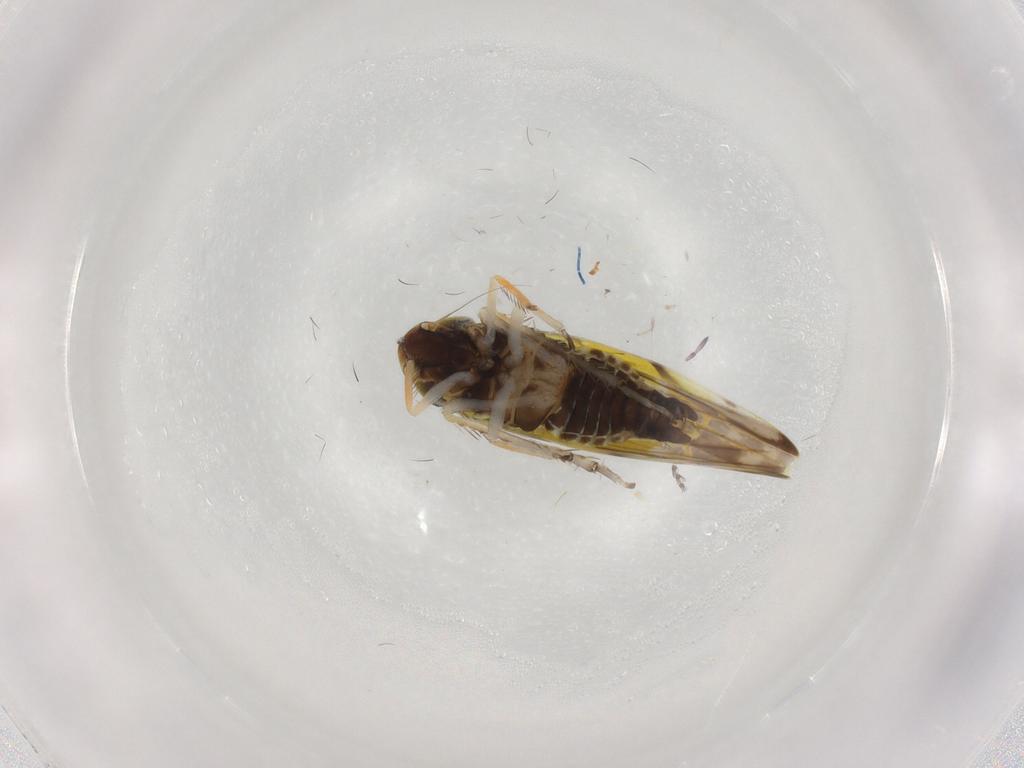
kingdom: Animalia
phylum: Arthropoda
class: Insecta
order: Hemiptera
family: Cicadellidae
